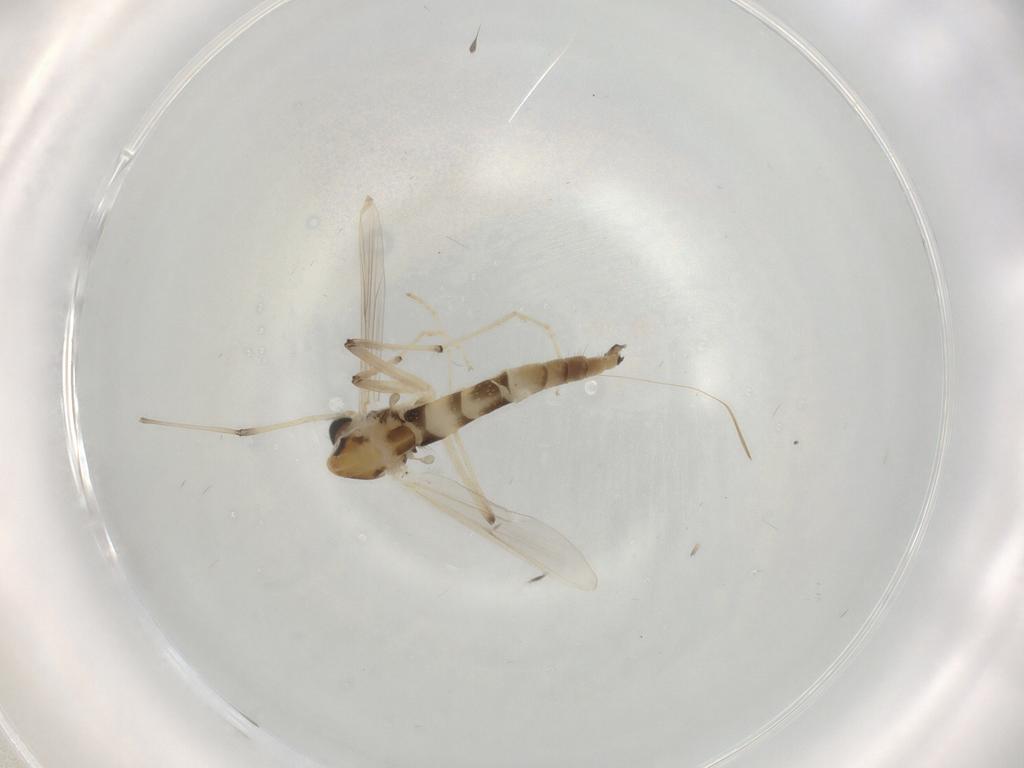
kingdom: Animalia
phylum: Arthropoda
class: Insecta
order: Diptera
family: Chironomidae
